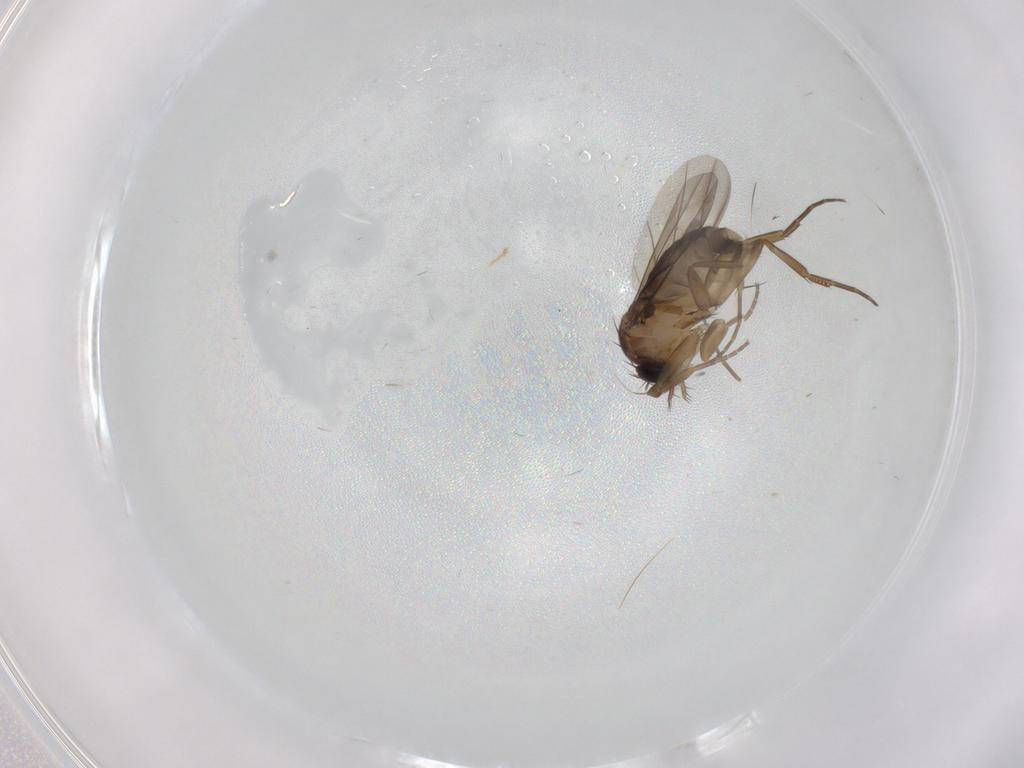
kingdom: Animalia
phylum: Arthropoda
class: Insecta
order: Diptera
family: Phoridae
